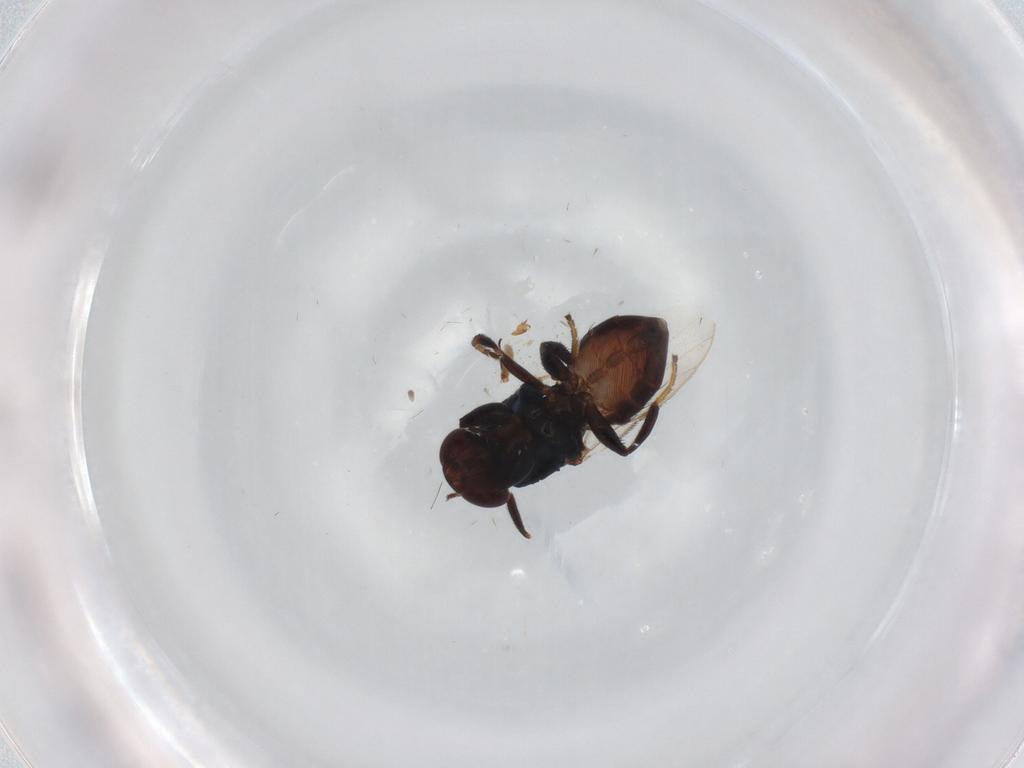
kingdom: Animalia
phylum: Arthropoda
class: Insecta
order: Diptera
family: Chloropidae
